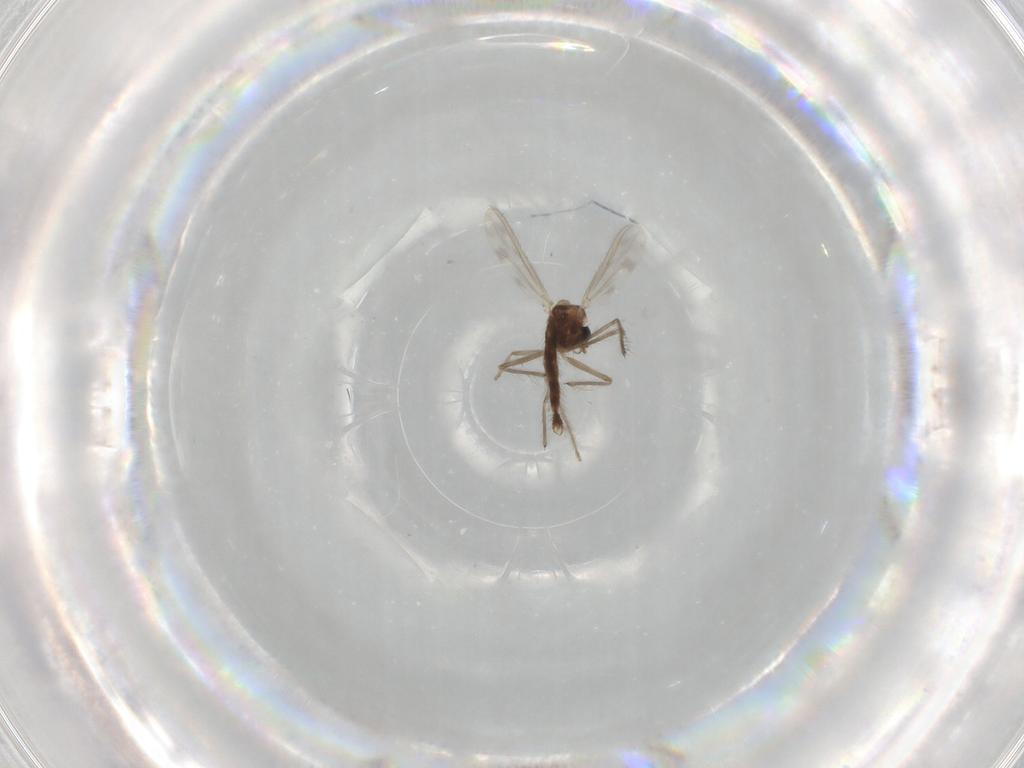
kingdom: Animalia
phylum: Arthropoda
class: Insecta
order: Diptera
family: Chironomidae
